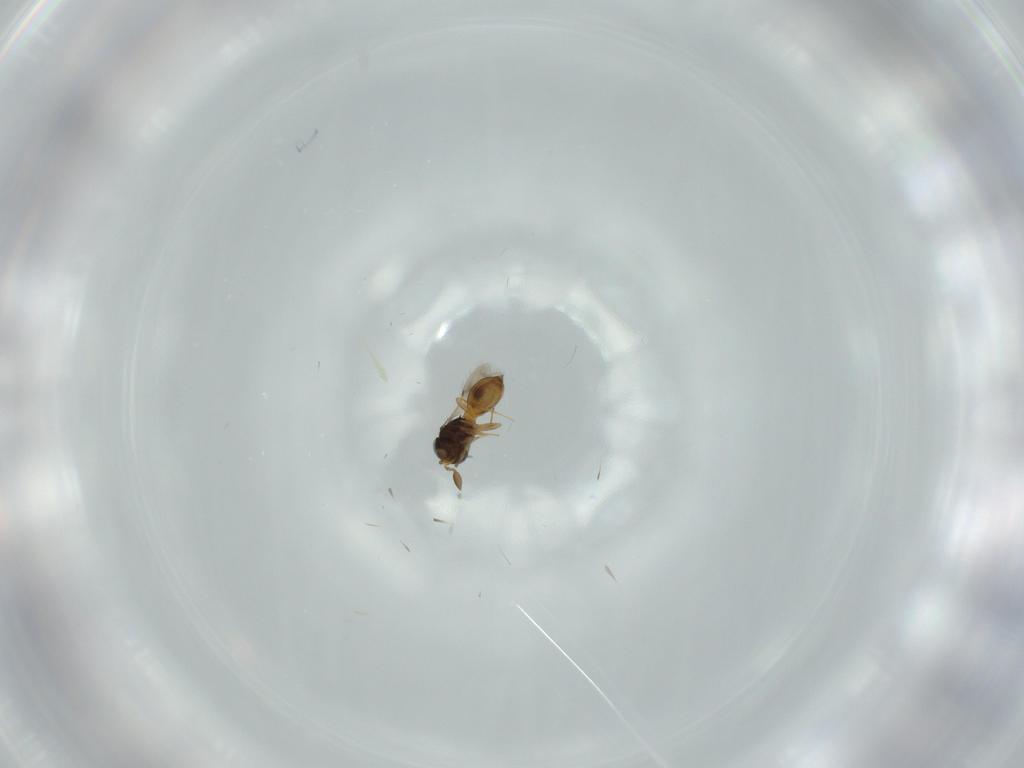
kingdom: Animalia
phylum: Arthropoda
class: Insecta
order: Hymenoptera
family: Scelionidae
